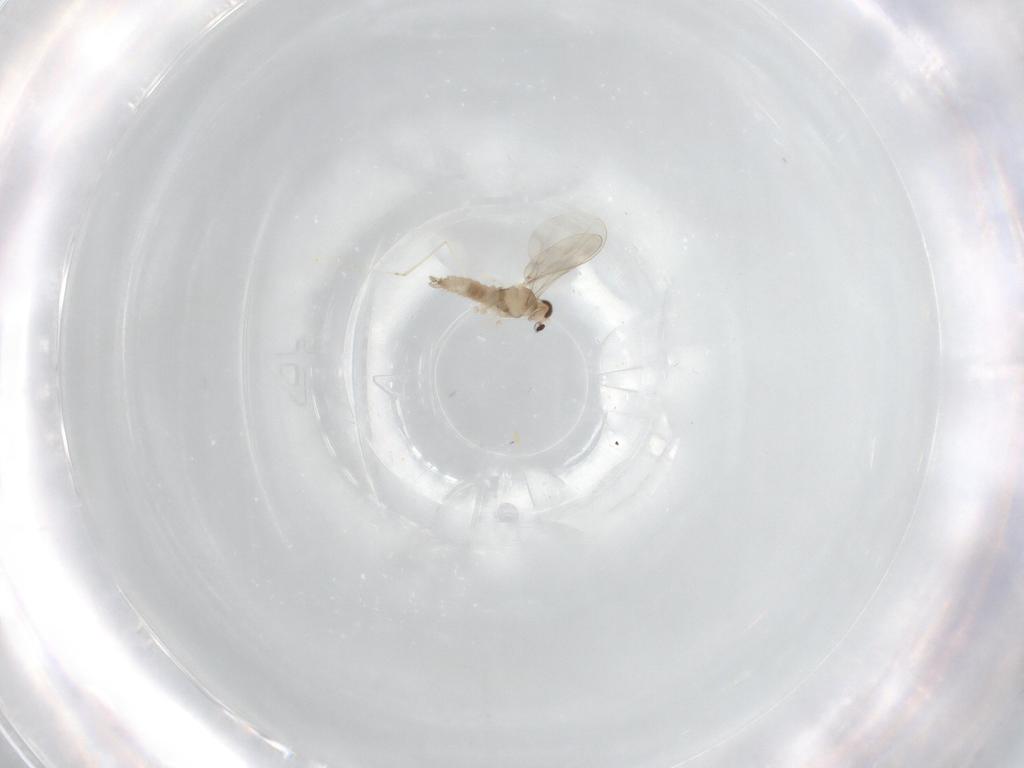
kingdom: Animalia
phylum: Arthropoda
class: Insecta
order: Diptera
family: Cecidomyiidae
